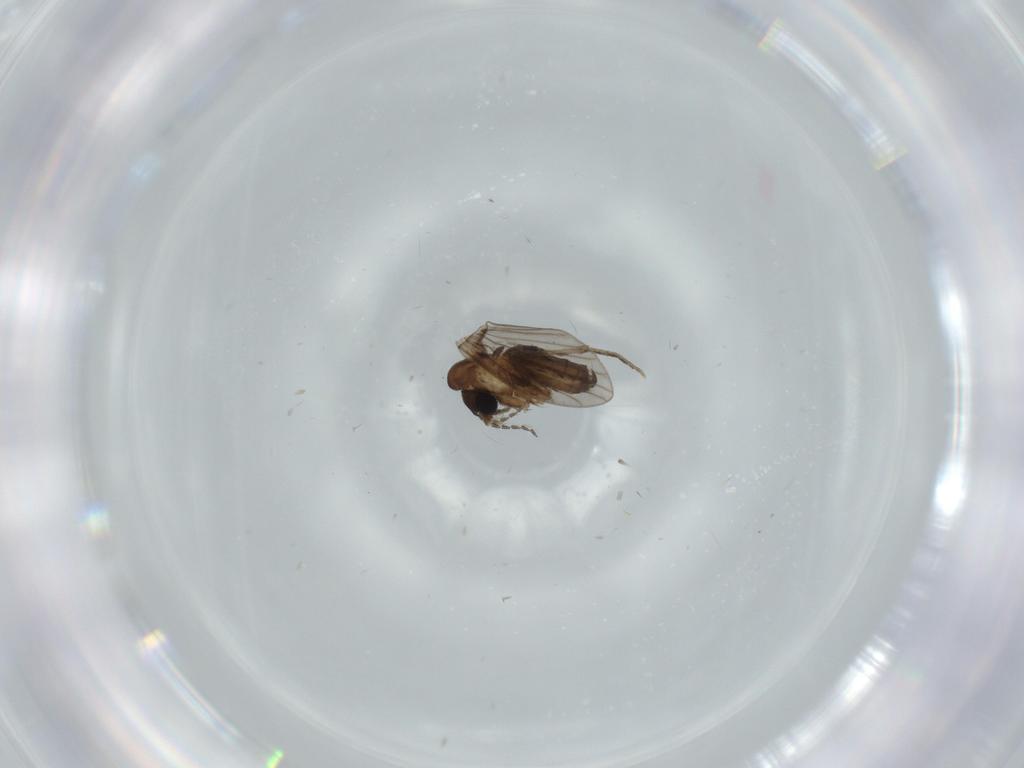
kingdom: Animalia
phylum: Arthropoda
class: Insecta
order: Diptera
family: Psychodidae
